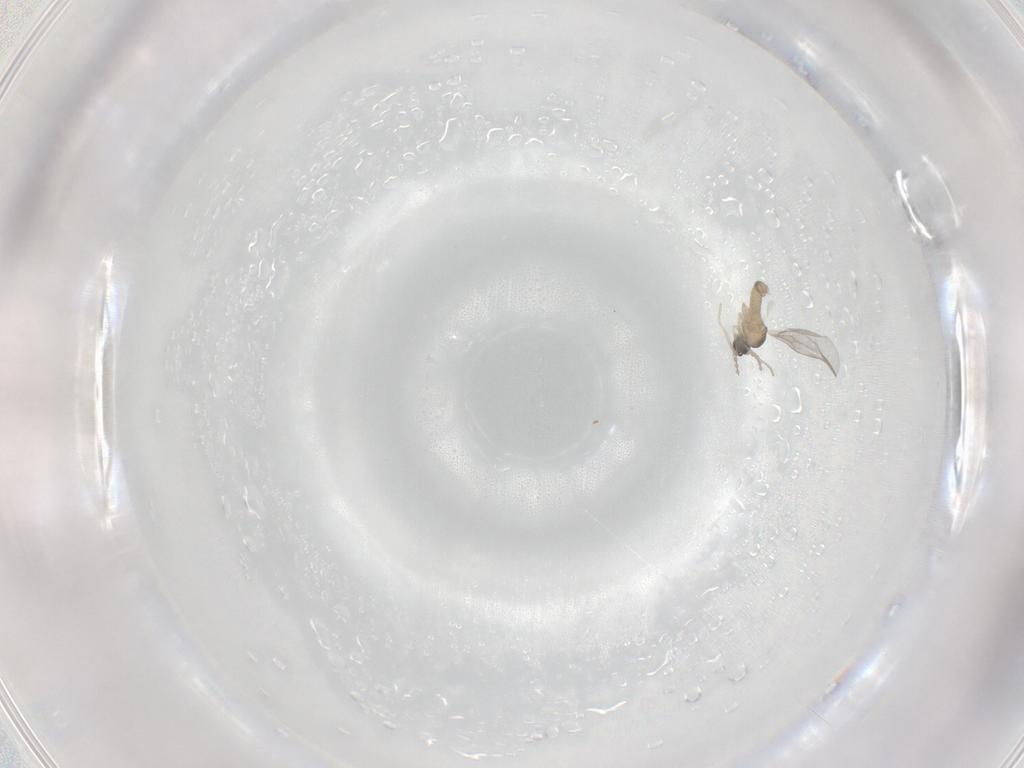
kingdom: Animalia
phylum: Arthropoda
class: Insecta
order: Diptera
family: Cecidomyiidae
